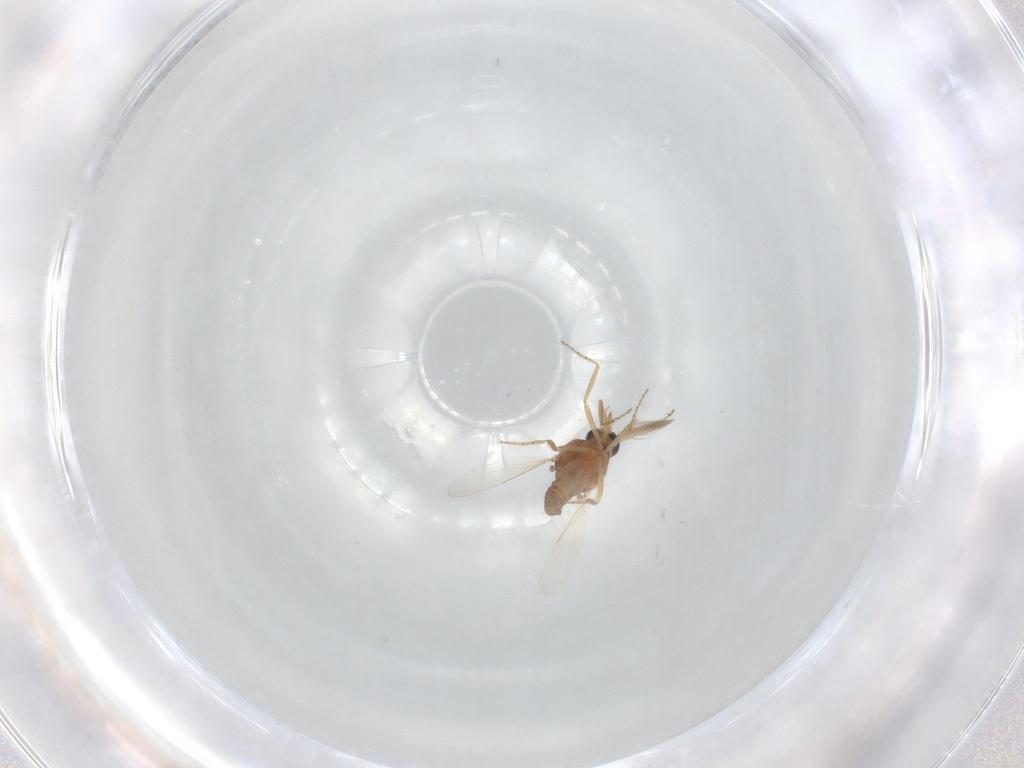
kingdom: Animalia
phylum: Arthropoda
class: Insecta
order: Diptera
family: Ceratopogonidae
